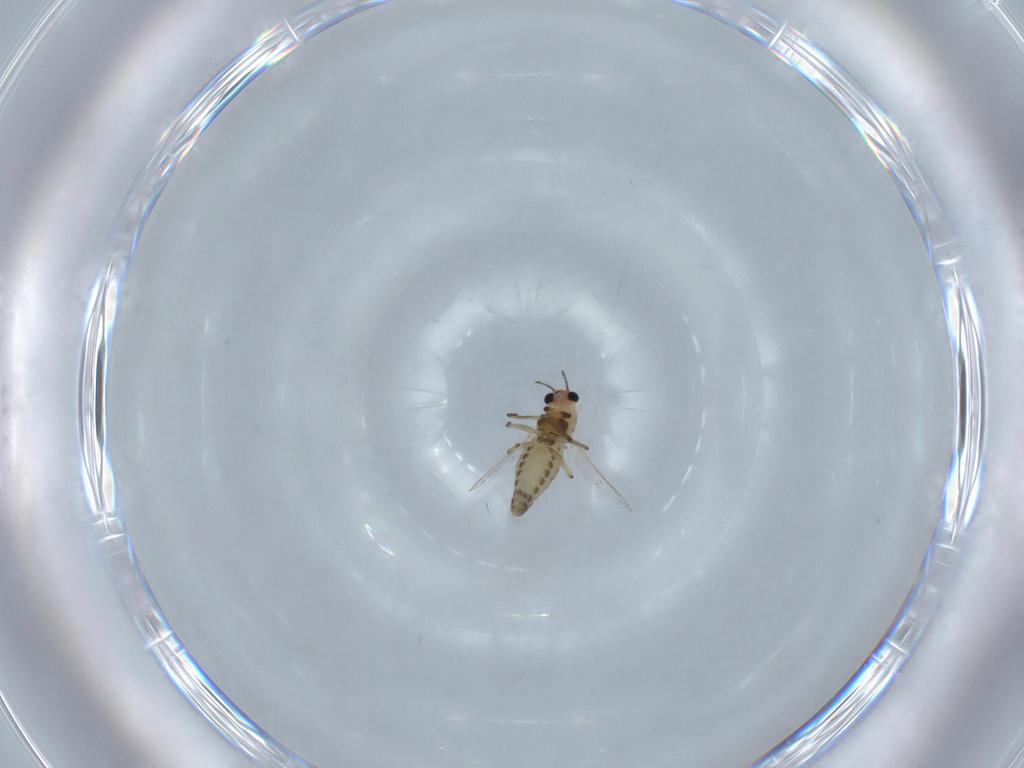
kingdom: Animalia
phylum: Arthropoda
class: Insecta
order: Diptera
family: Chironomidae
